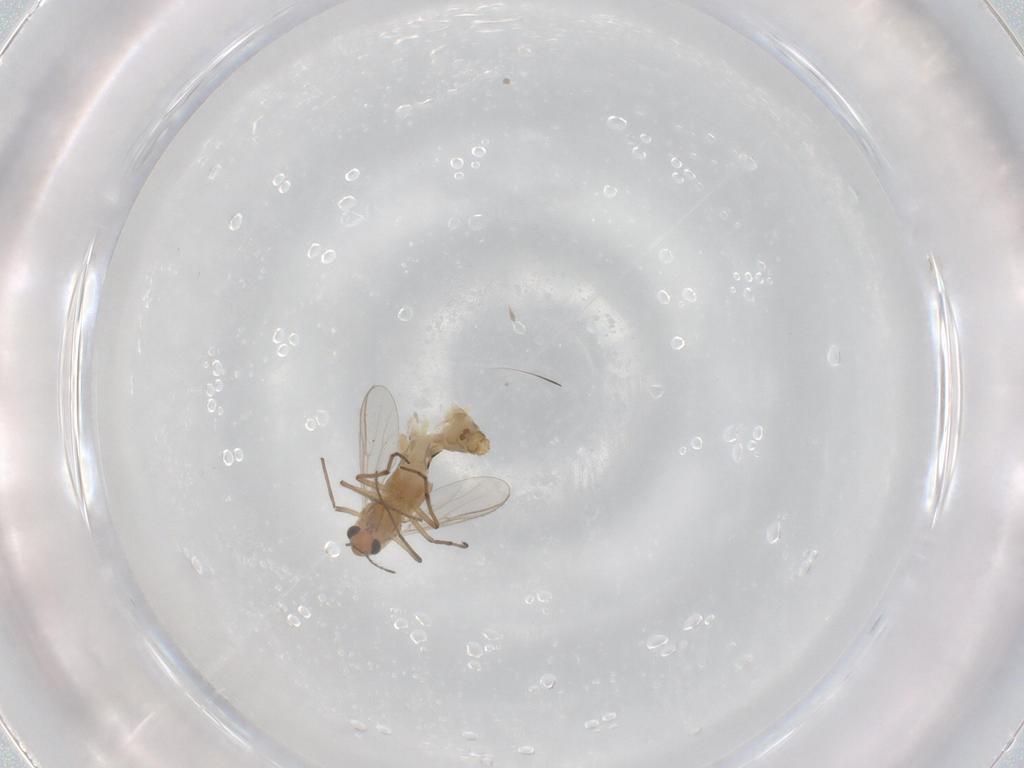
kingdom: Animalia
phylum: Arthropoda
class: Insecta
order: Diptera
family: Chironomidae
